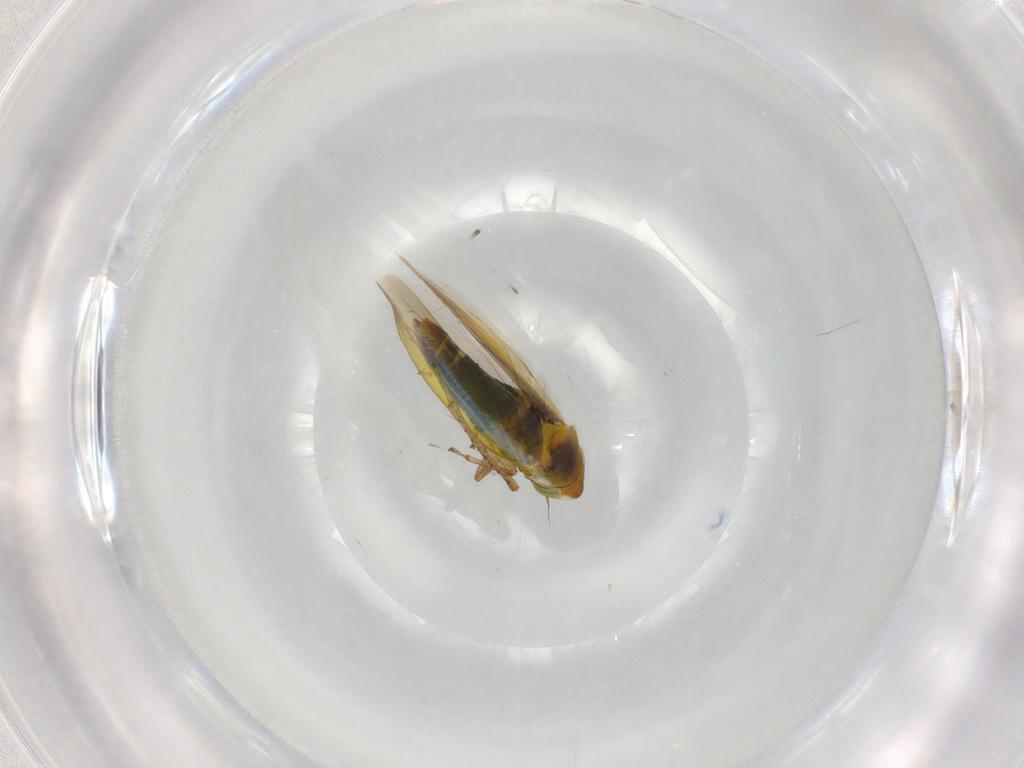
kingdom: Animalia
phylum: Arthropoda
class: Insecta
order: Hemiptera
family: Cicadellidae
